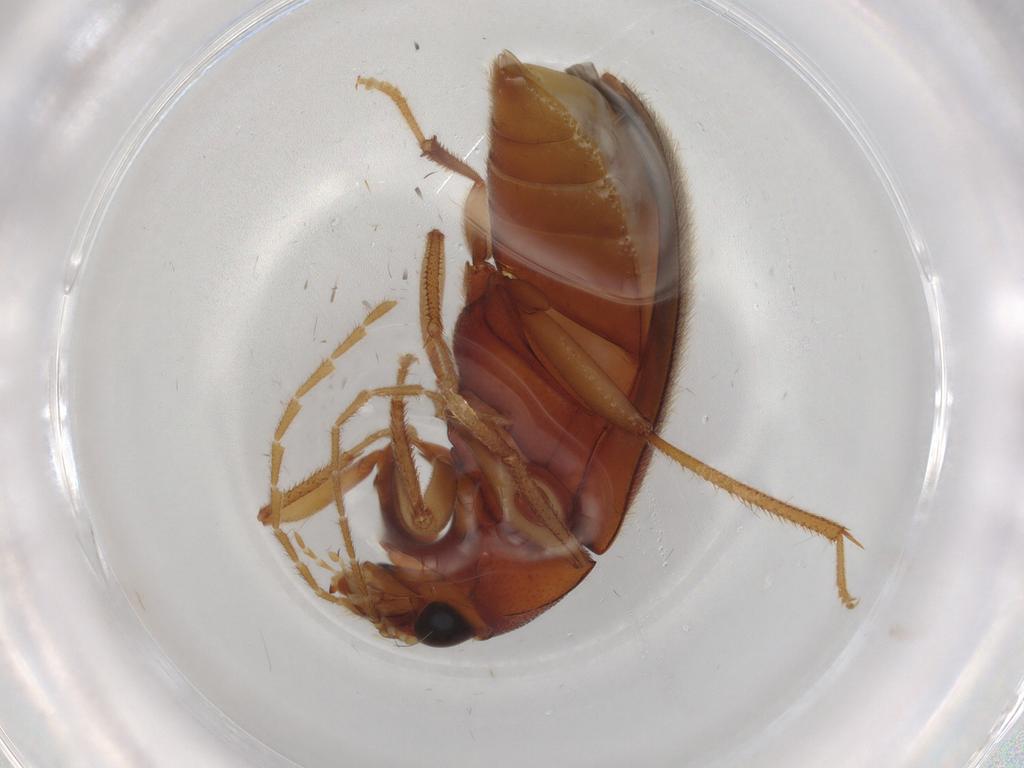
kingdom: Animalia
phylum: Arthropoda
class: Insecta
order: Coleoptera
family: Ptilodactylidae
